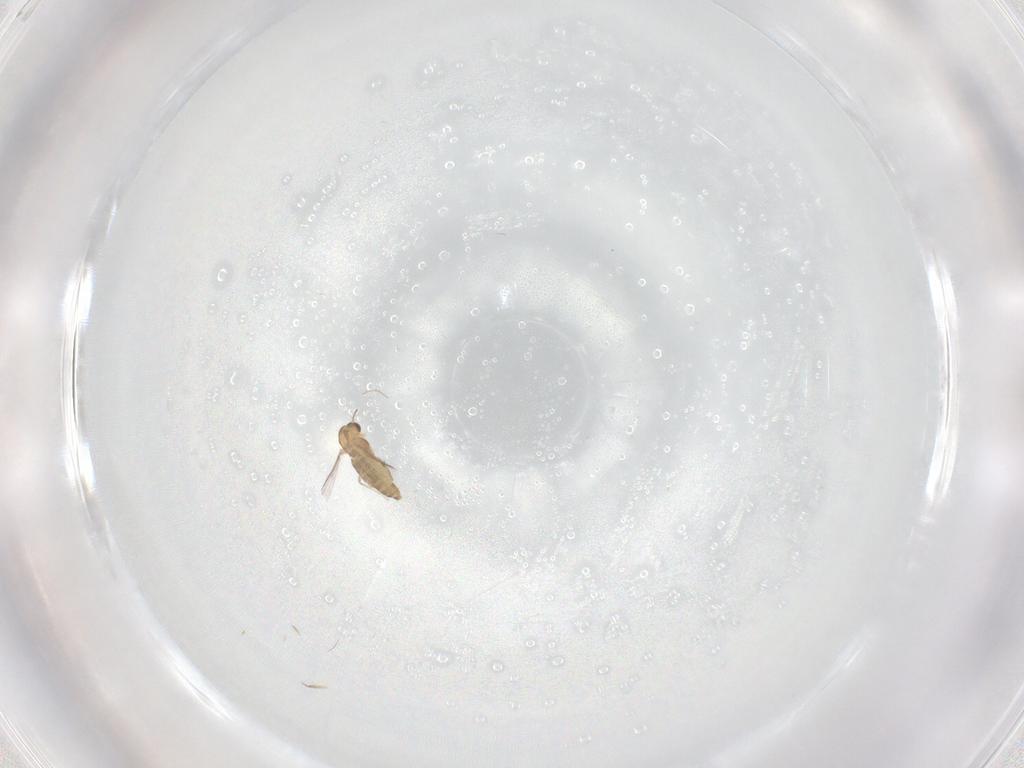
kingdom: Animalia
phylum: Arthropoda
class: Insecta
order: Diptera
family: Chironomidae
